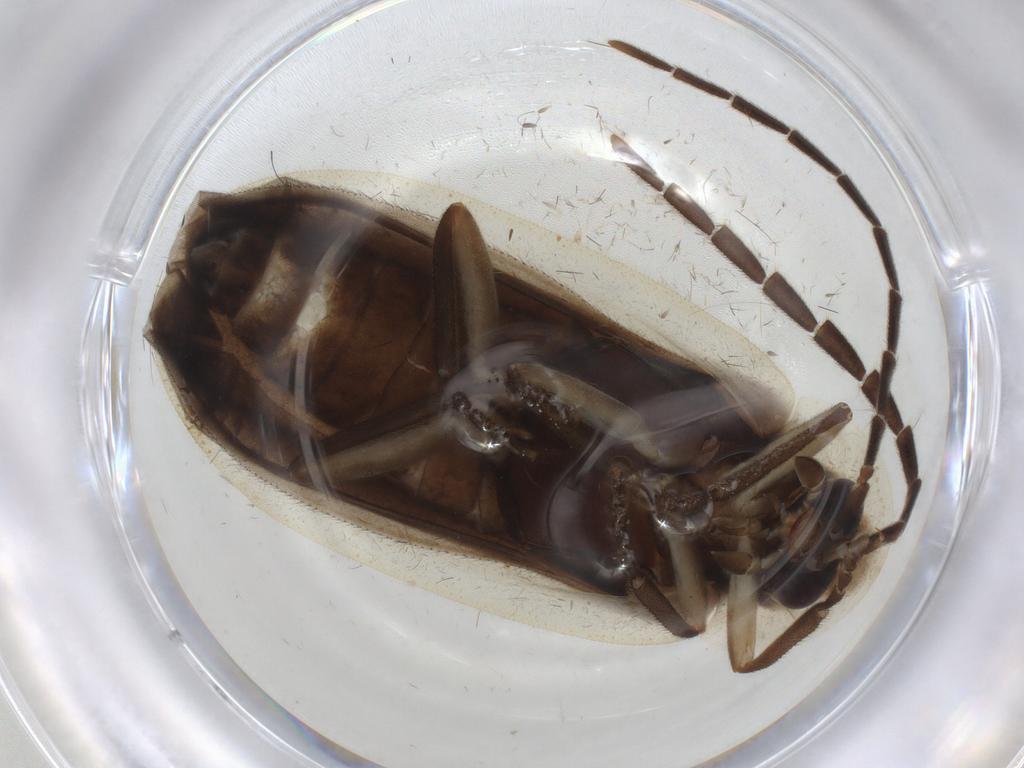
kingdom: Animalia
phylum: Arthropoda
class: Insecta
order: Coleoptera
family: Lampyridae
